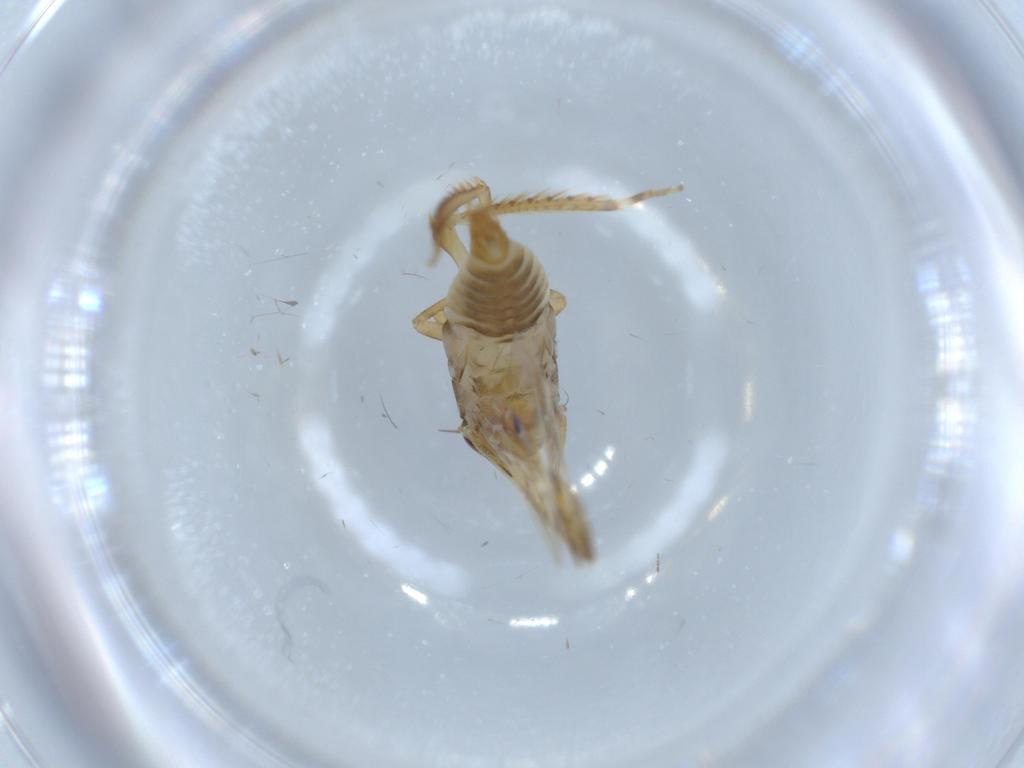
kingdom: Animalia
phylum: Arthropoda
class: Insecta
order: Hemiptera
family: Cicadellidae
